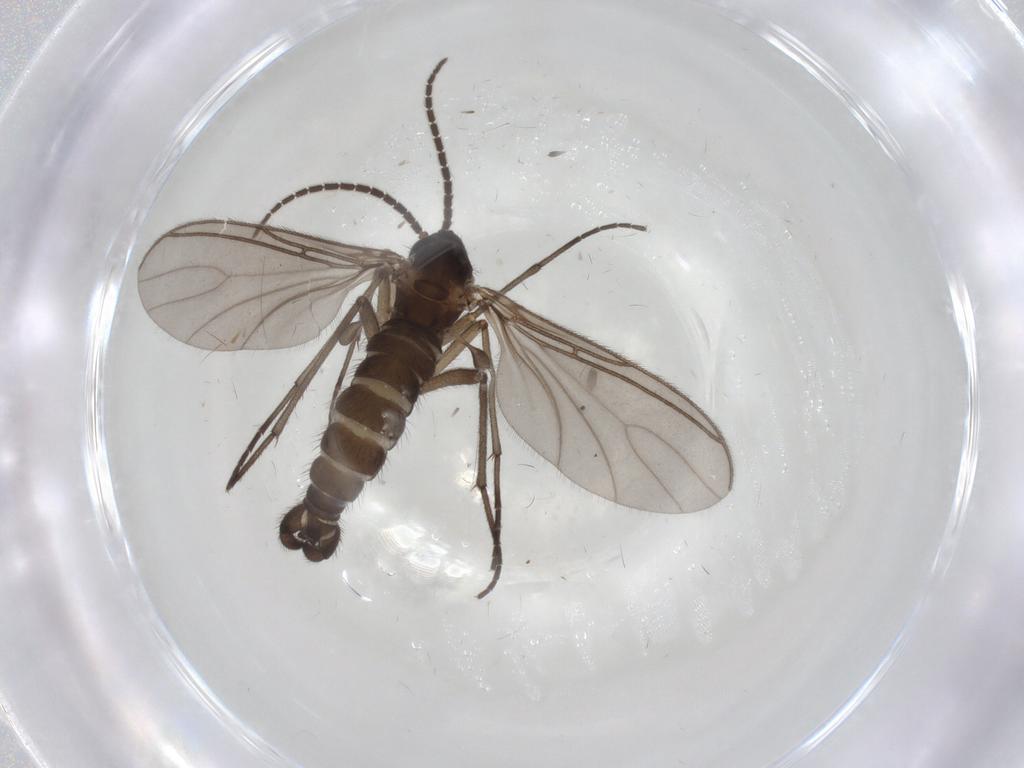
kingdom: Animalia
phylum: Arthropoda
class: Insecta
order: Diptera
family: Sciaridae
